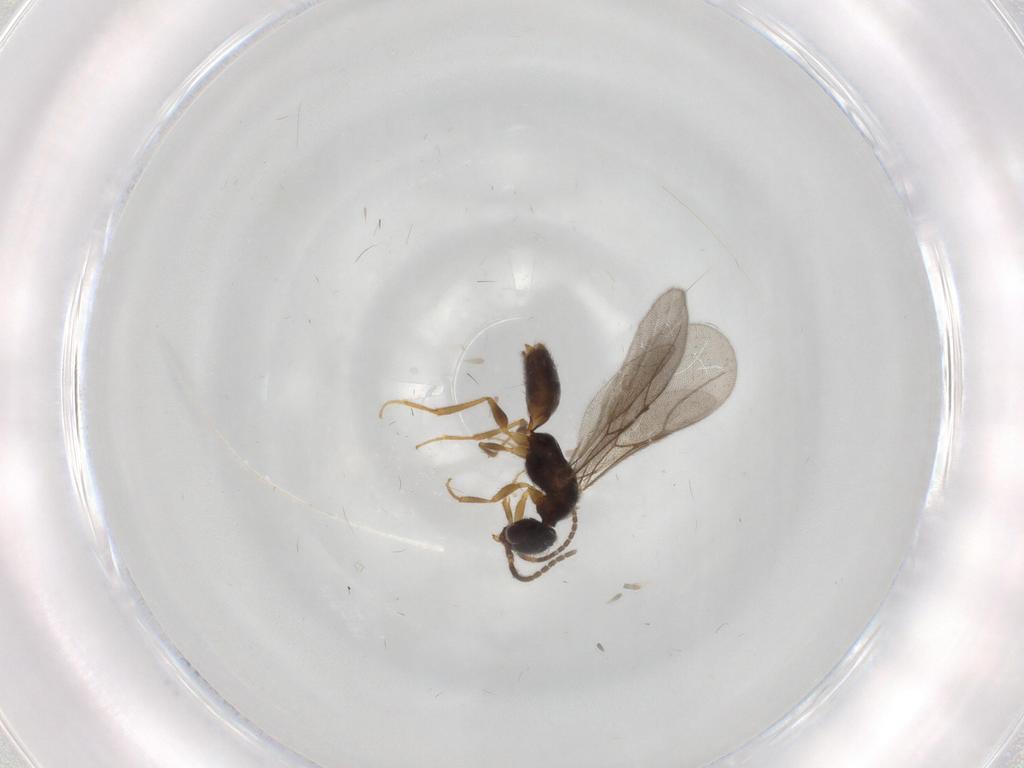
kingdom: Animalia
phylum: Arthropoda
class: Insecta
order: Hymenoptera
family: Bethylidae
